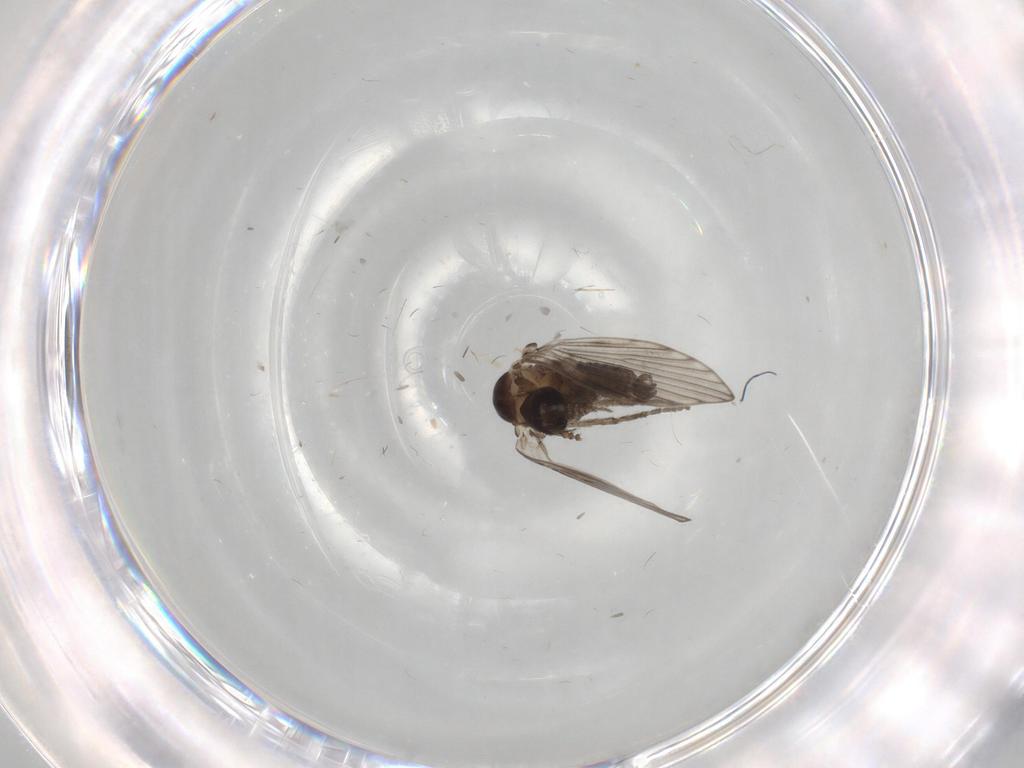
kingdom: Animalia
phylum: Arthropoda
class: Insecta
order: Diptera
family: Psychodidae
